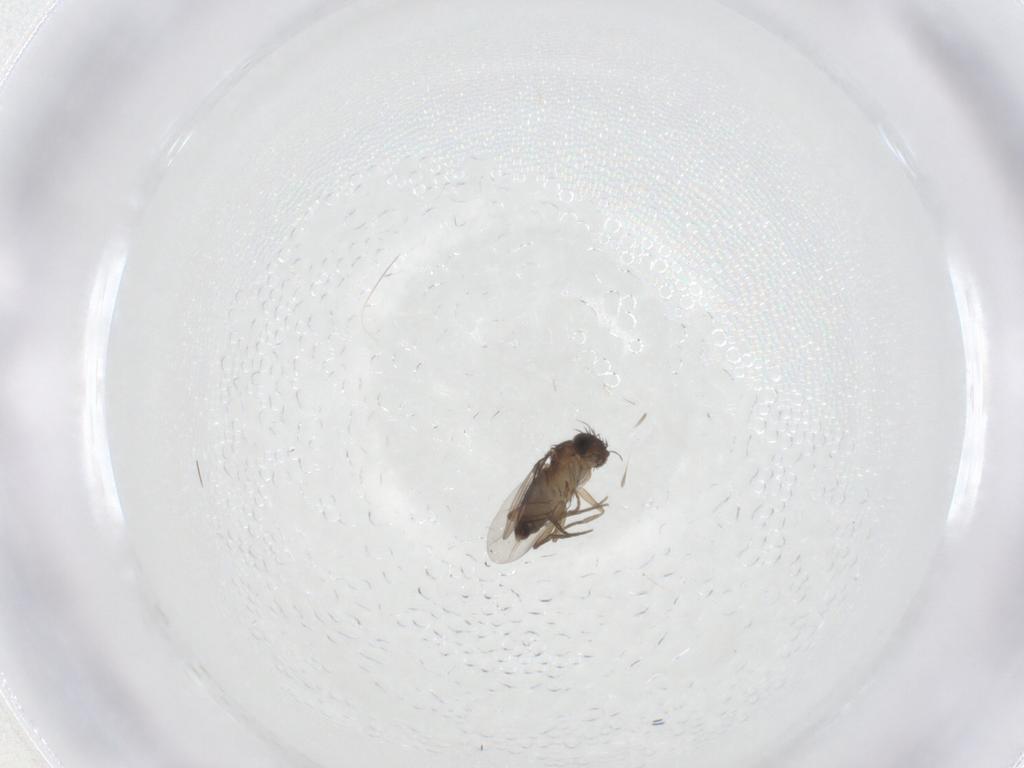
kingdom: Animalia
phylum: Arthropoda
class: Insecta
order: Diptera
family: Phoridae
